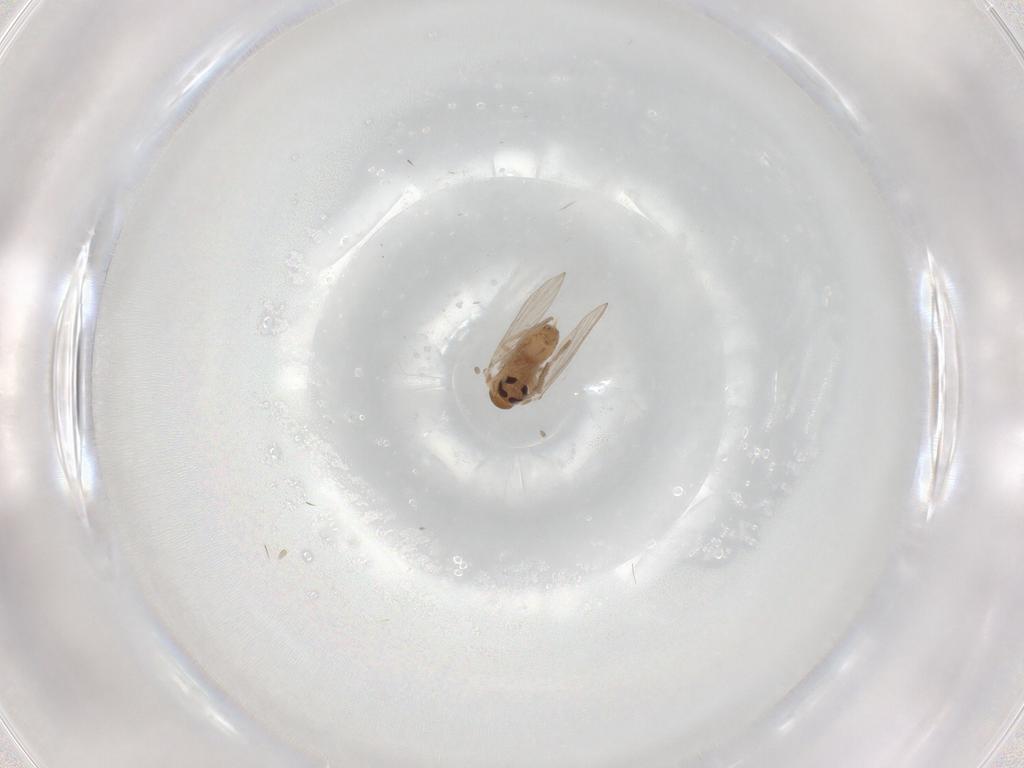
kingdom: Animalia
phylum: Arthropoda
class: Insecta
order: Diptera
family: Psychodidae
